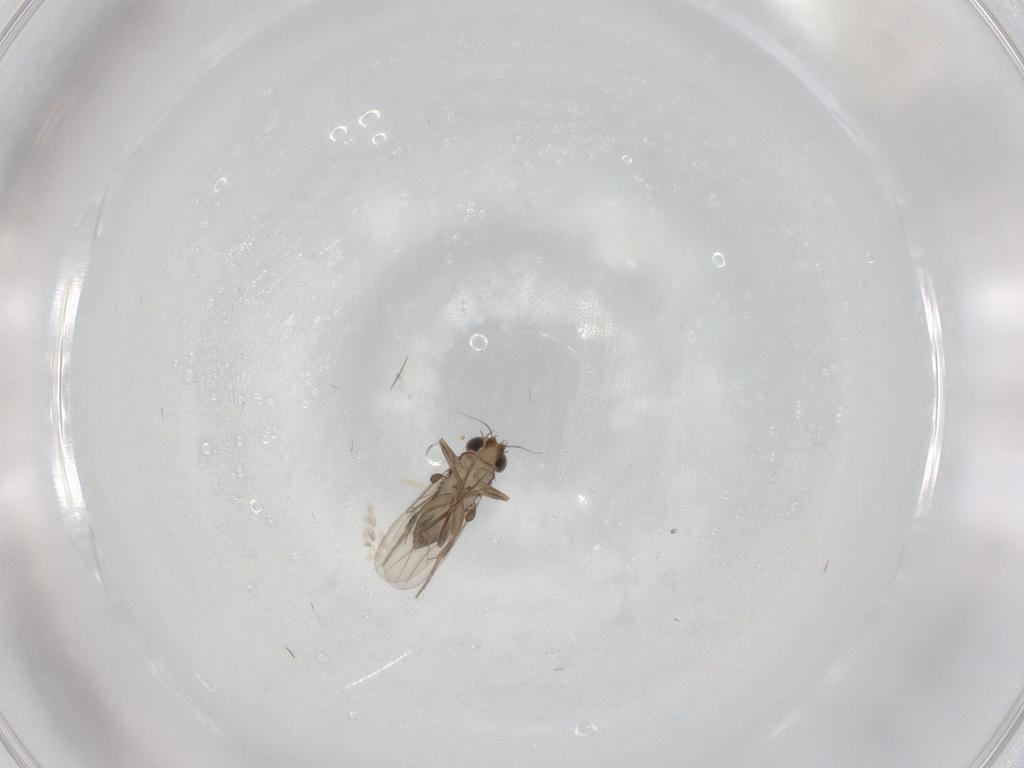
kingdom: Animalia
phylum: Arthropoda
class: Insecta
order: Diptera
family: Phoridae
